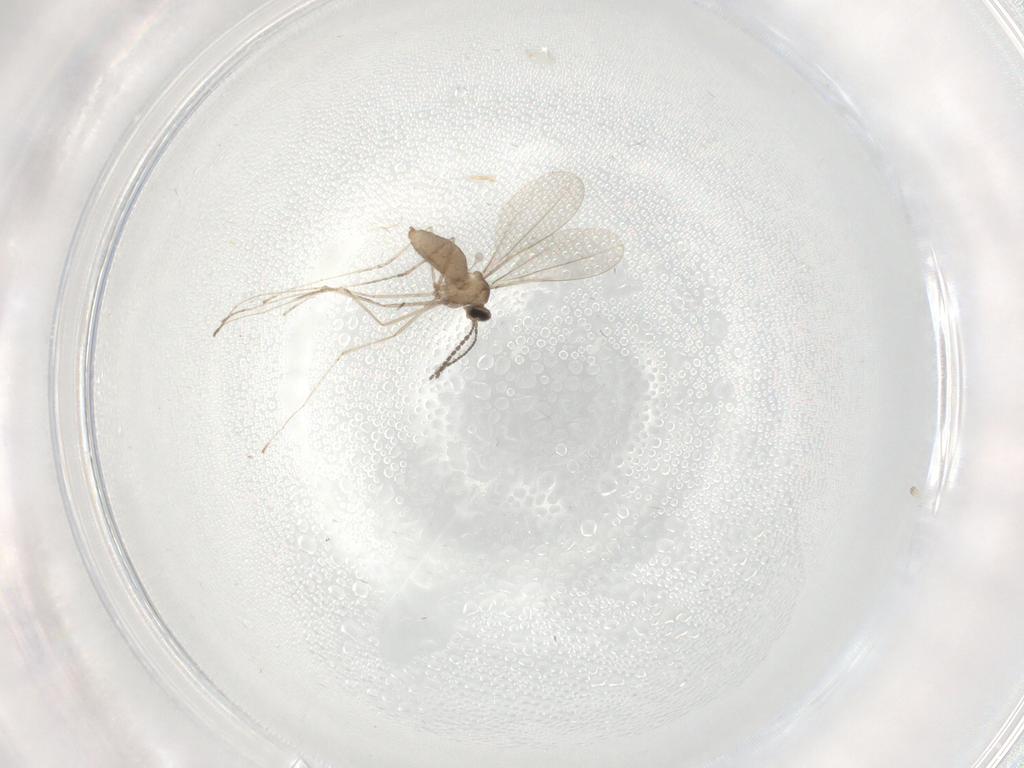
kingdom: Animalia
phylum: Arthropoda
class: Insecta
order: Diptera
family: Cecidomyiidae
